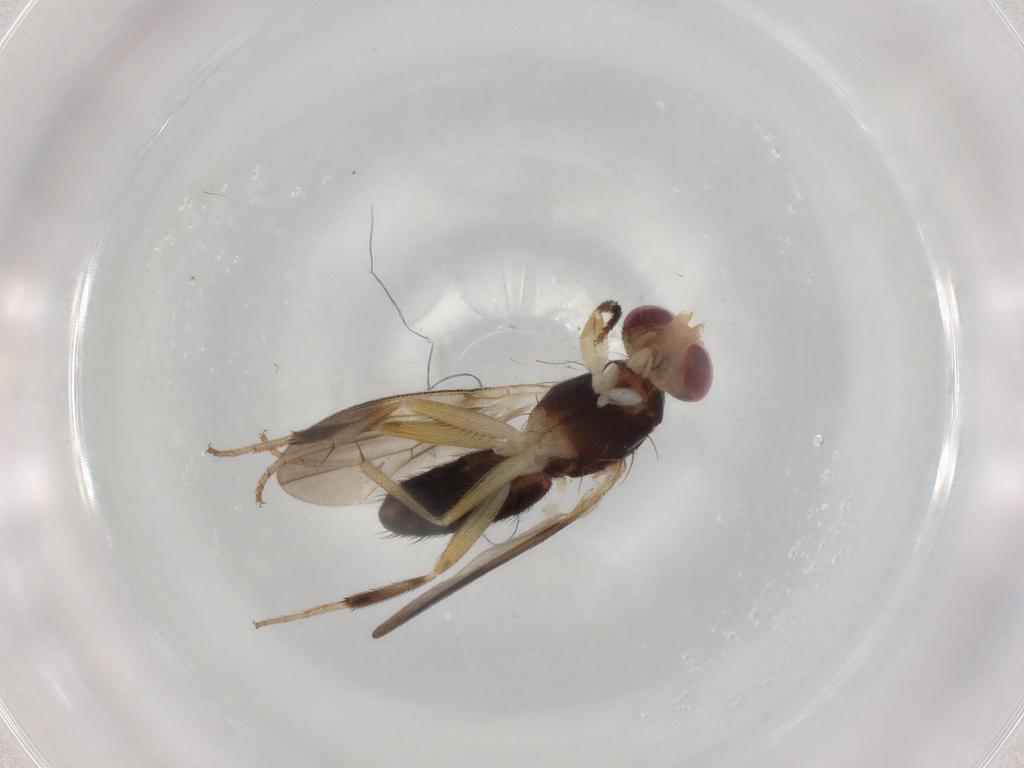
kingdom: Animalia
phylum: Arthropoda
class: Insecta
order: Diptera
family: Clusiidae
